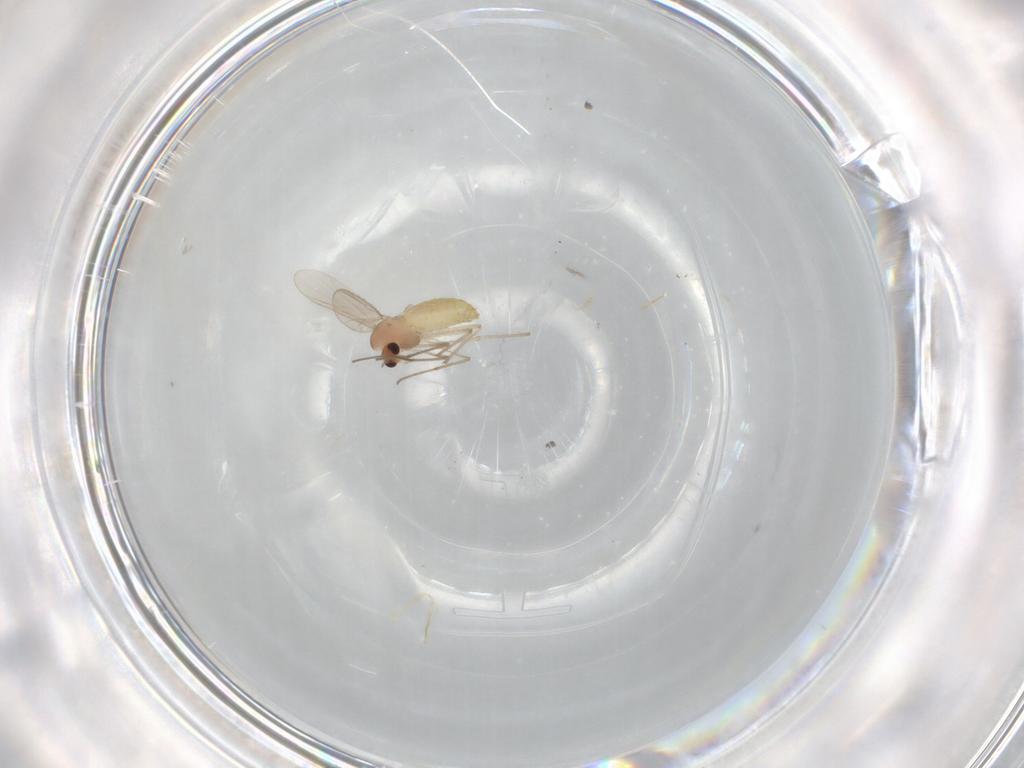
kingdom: Animalia
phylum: Arthropoda
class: Insecta
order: Diptera
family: Chironomidae
